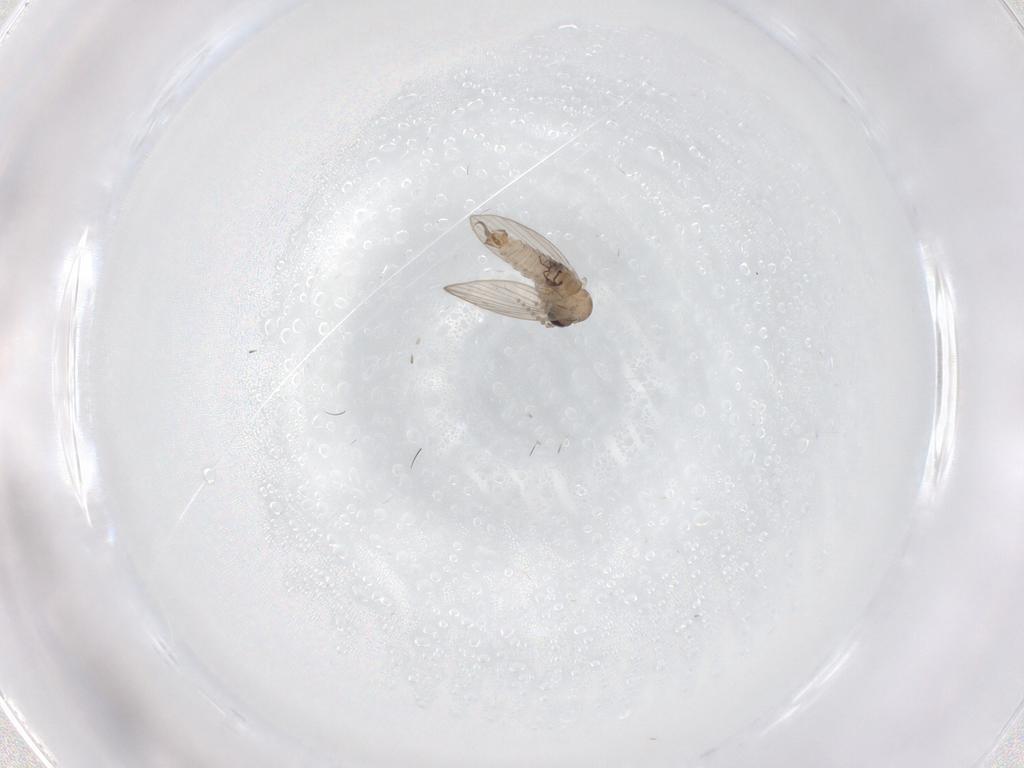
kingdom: Animalia
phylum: Arthropoda
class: Insecta
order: Diptera
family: Psychodidae
